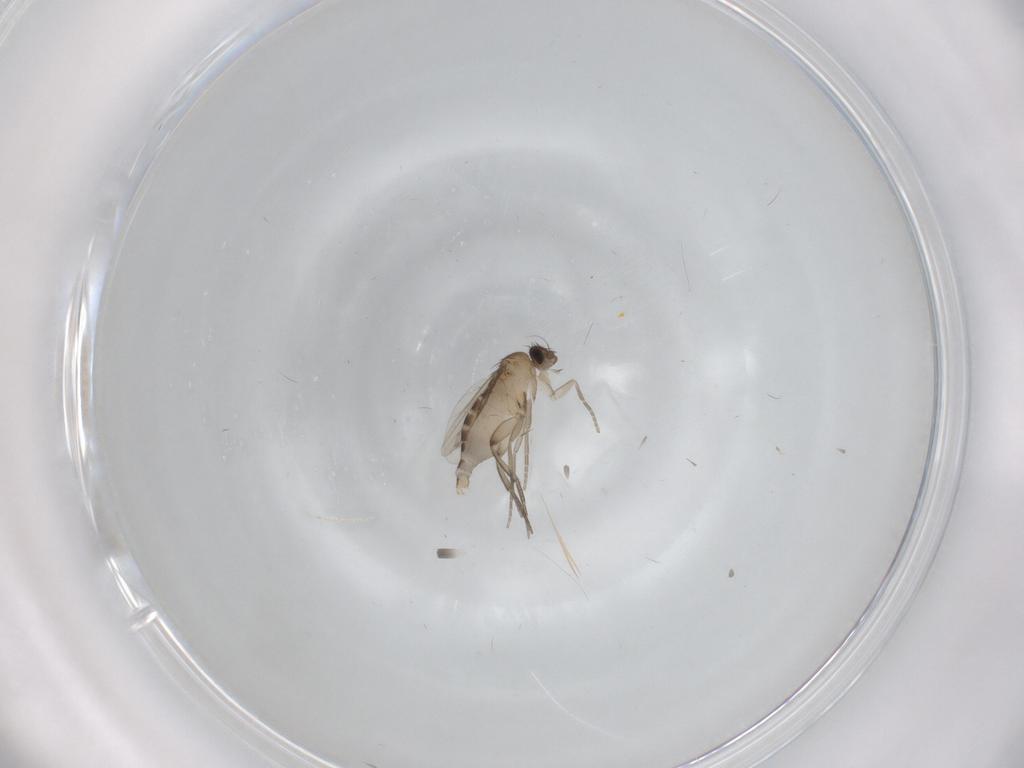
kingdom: Animalia
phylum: Arthropoda
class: Insecta
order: Diptera
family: Phoridae
